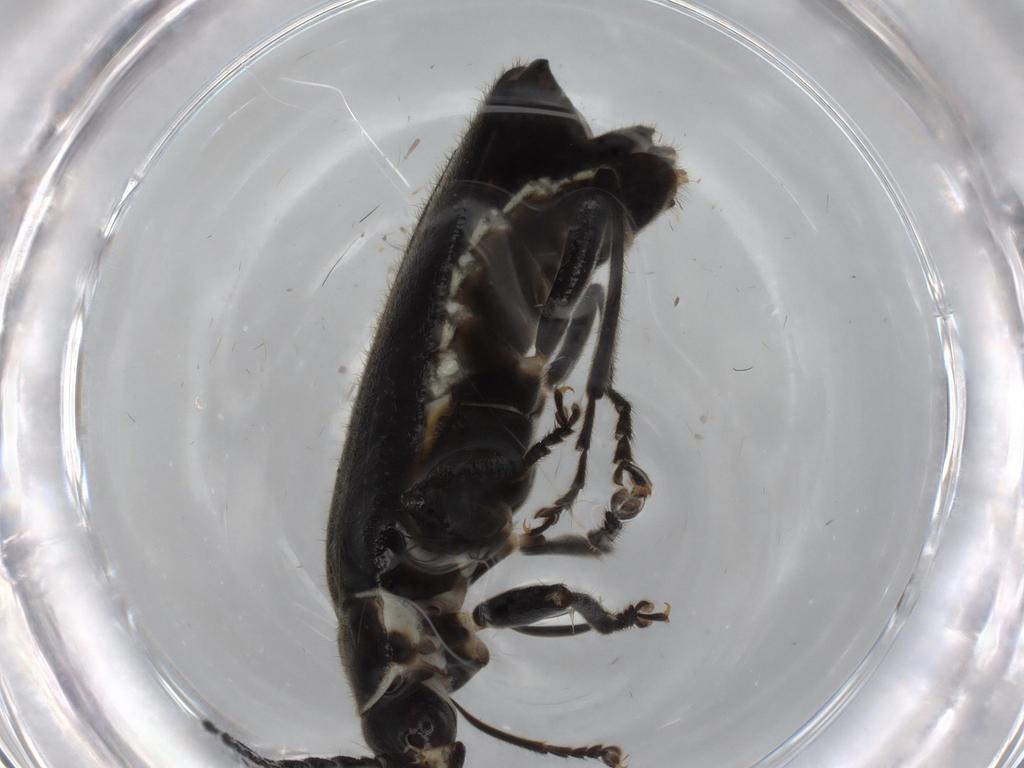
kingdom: Animalia
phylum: Arthropoda
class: Insecta
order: Coleoptera
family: Cantharidae
